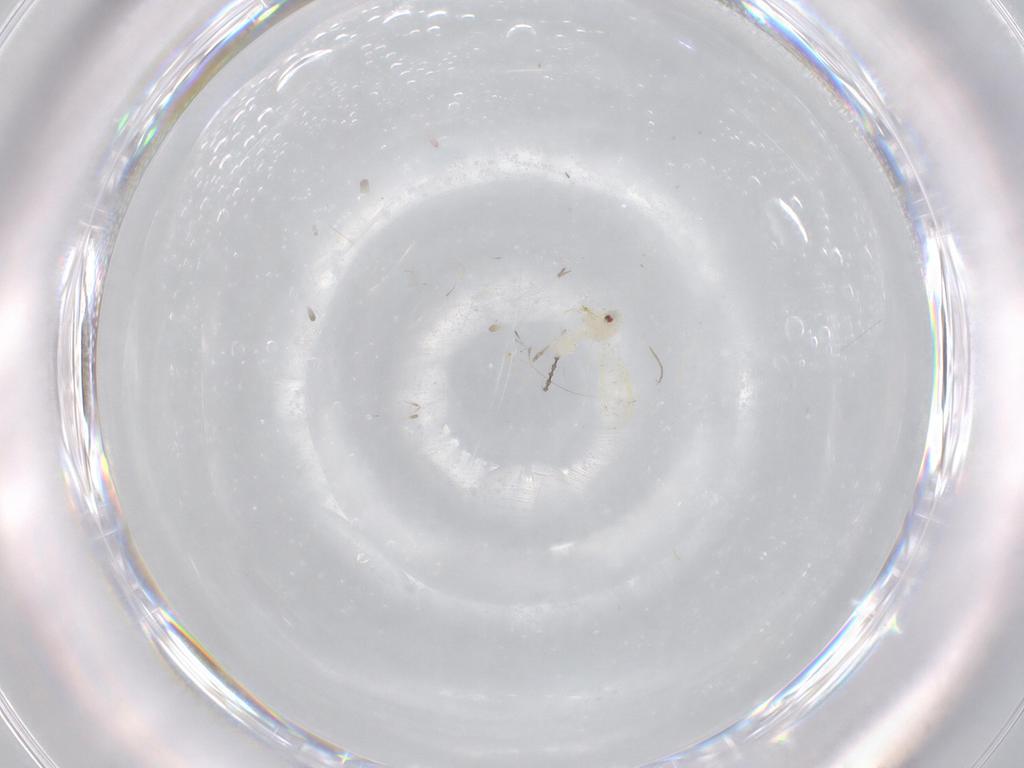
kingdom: Animalia
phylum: Arthropoda
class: Insecta
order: Hemiptera
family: Aleyrodidae
